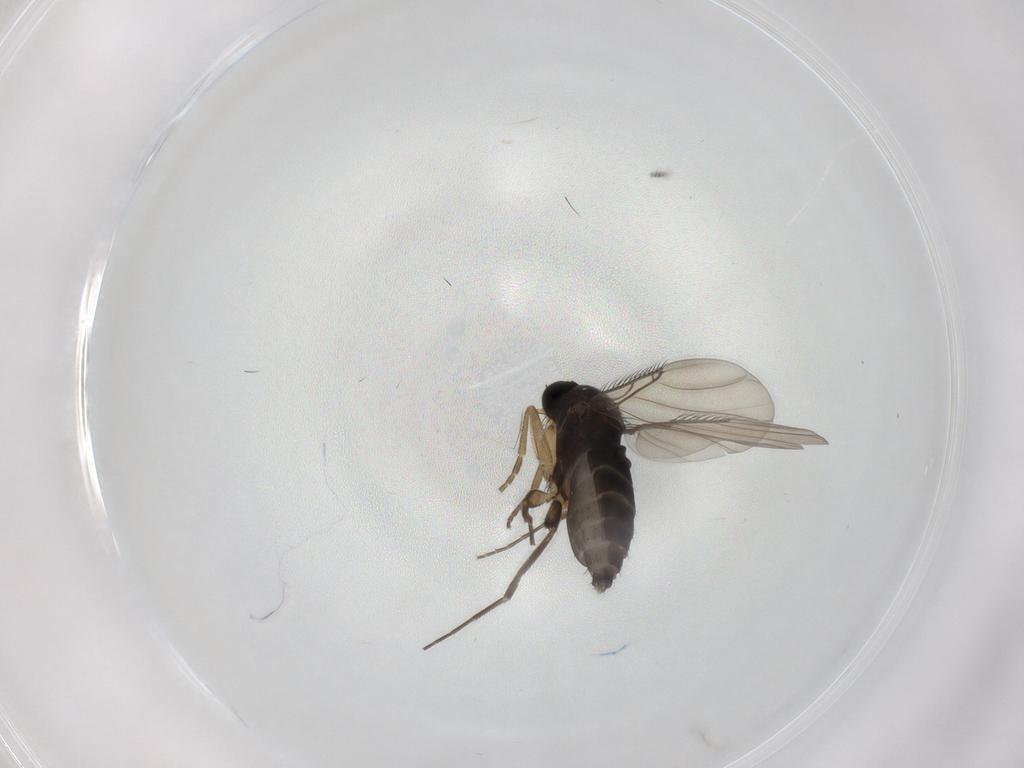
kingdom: Animalia
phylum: Arthropoda
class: Insecta
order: Diptera
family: Phoridae
